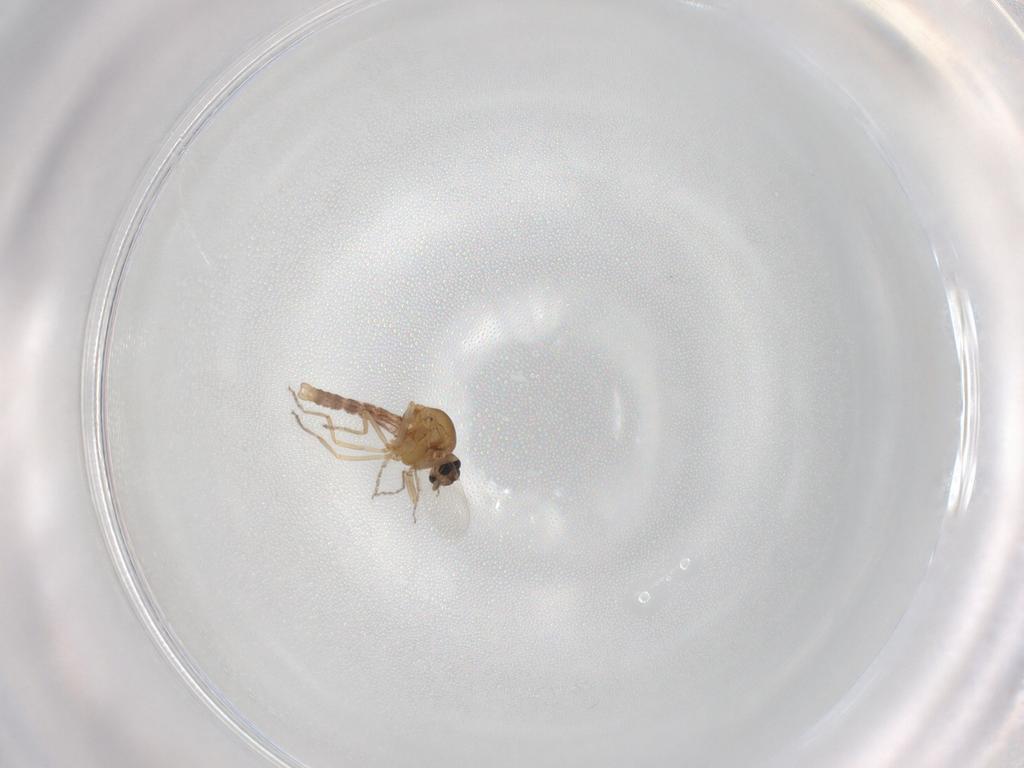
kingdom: Animalia
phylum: Arthropoda
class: Insecta
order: Diptera
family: Ceratopogonidae
